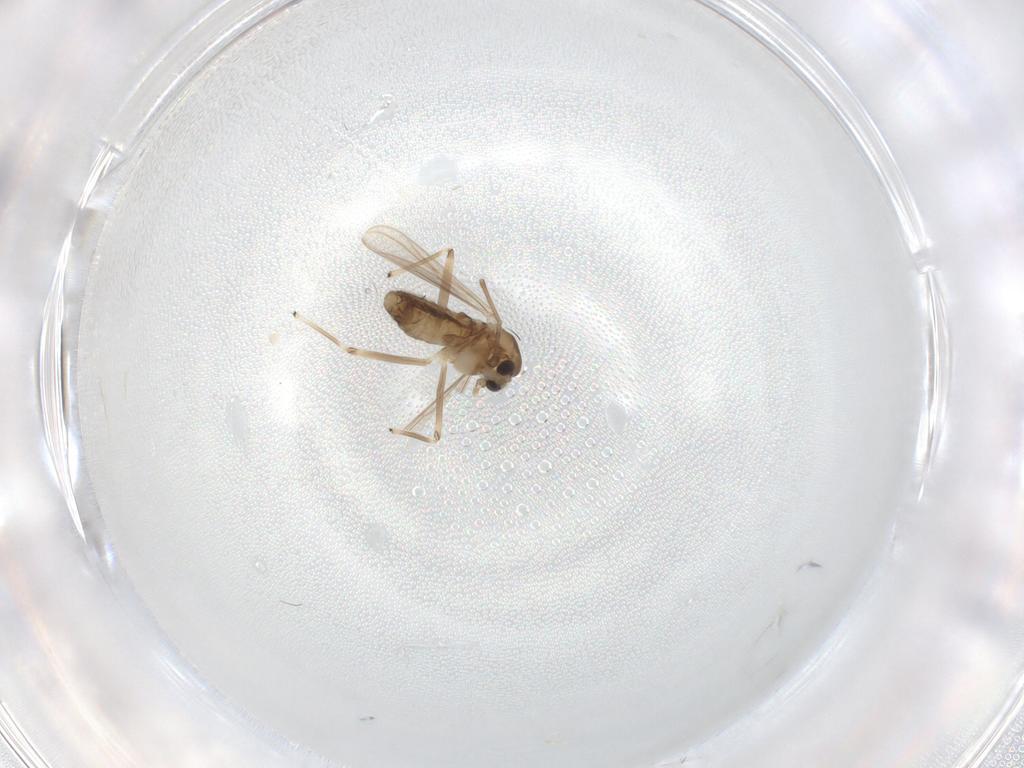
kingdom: Animalia
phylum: Arthropoda
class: Insecta
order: Diptera
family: Chironomidae
